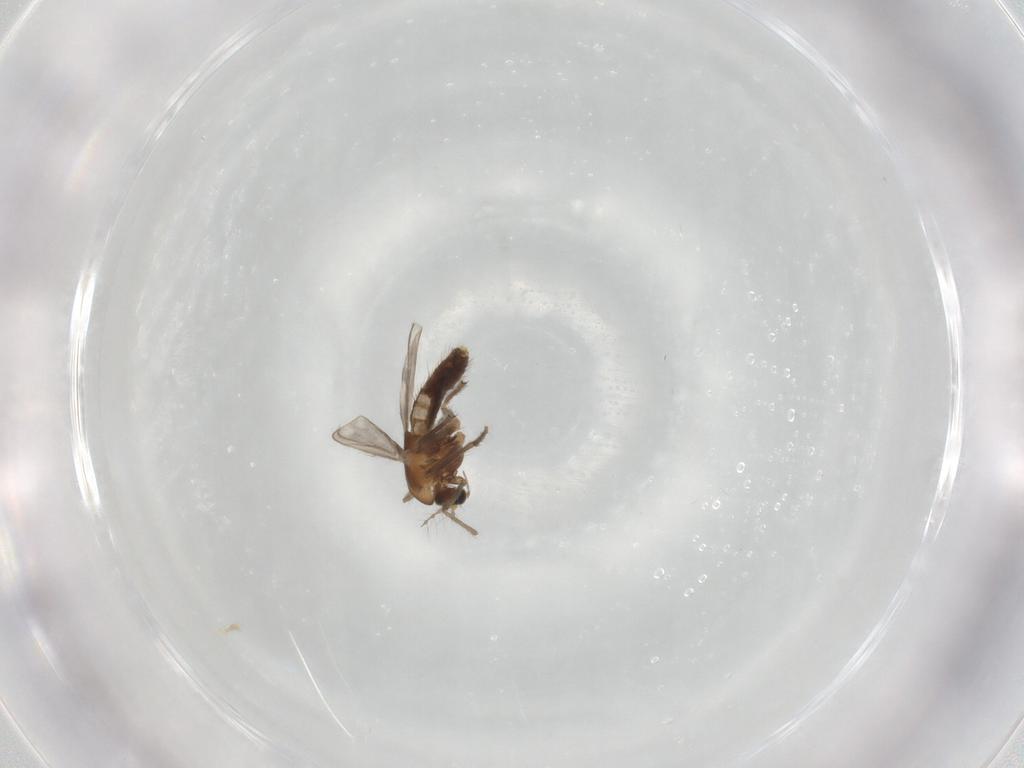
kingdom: Animalia
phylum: Arthropoda
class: Insecta
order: Diptera
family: Chironomidae
